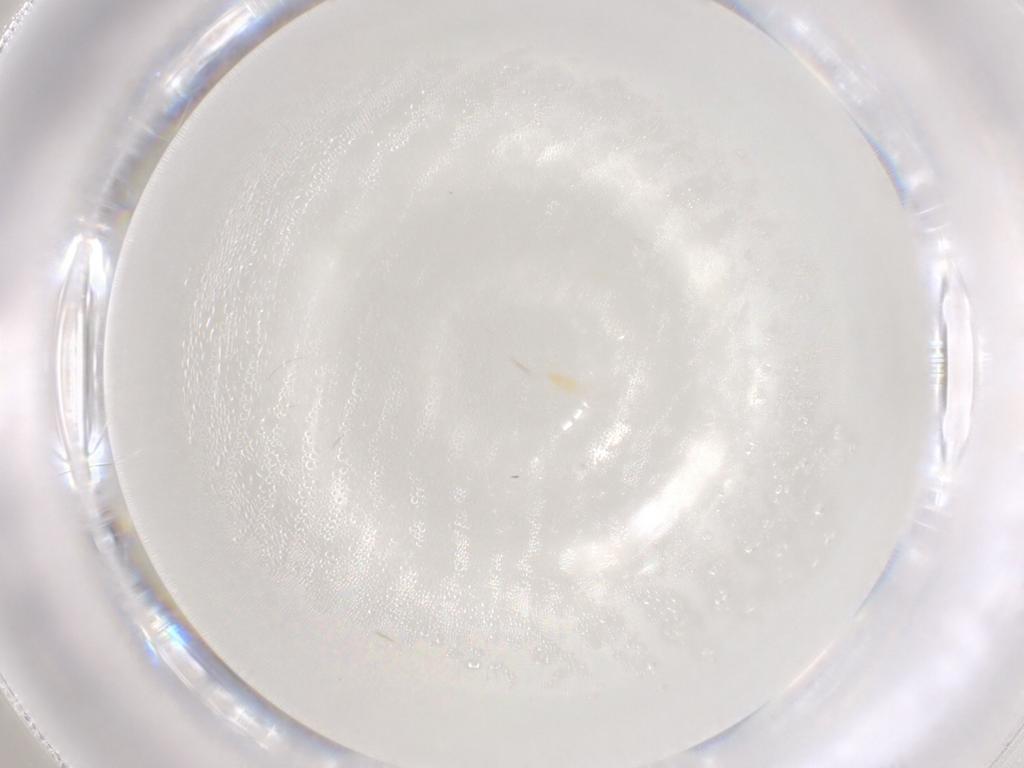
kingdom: Animalia
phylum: Arthropoda
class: Arachnida
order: Trombidiformes
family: Eupodidae
